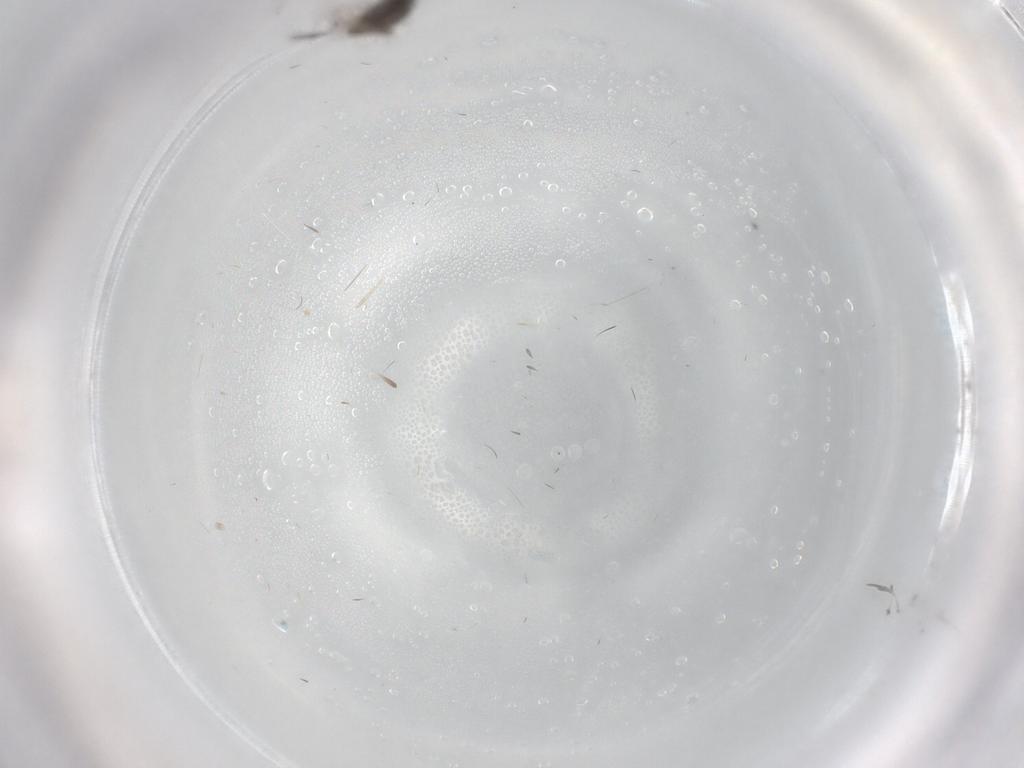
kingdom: Animalia
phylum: Arthropoda
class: Insecta
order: Diptera
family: Chironomidae
